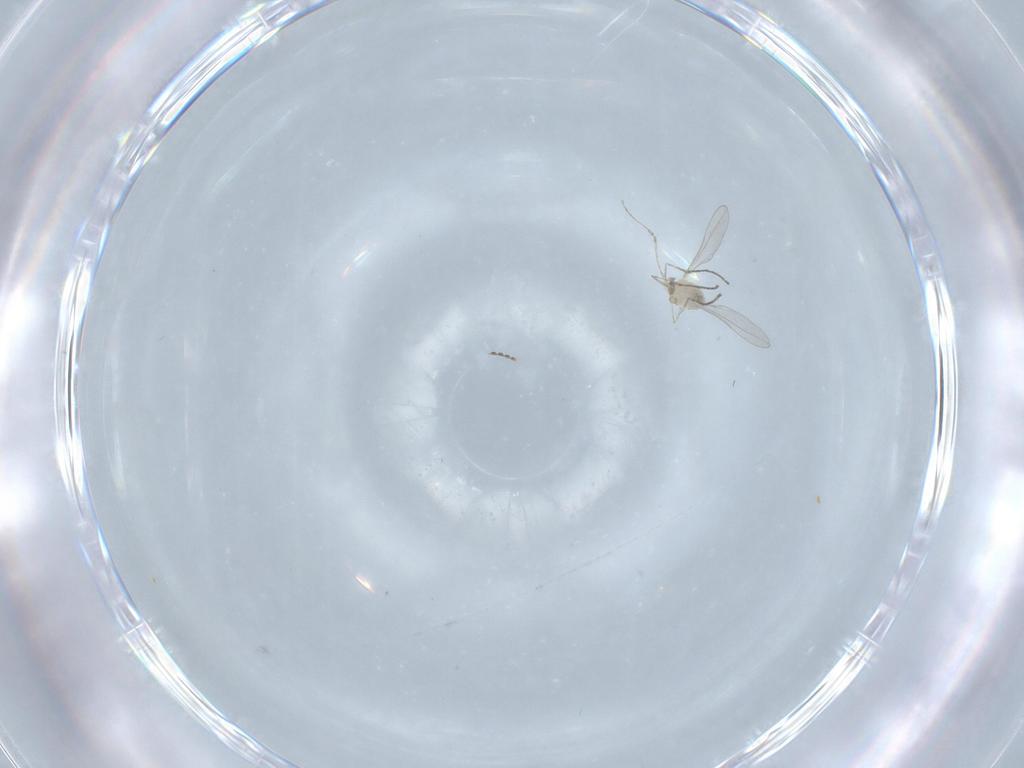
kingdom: Animalia
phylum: Arthropoda
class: Insecta
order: Diptera
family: Cecidomyiidae
